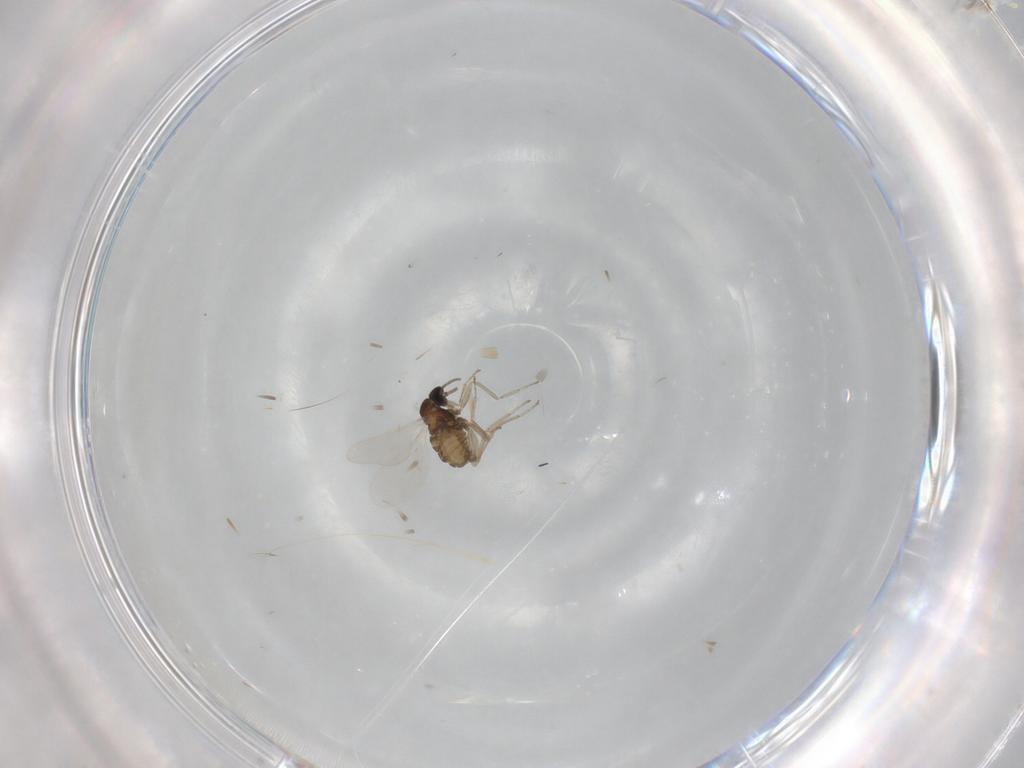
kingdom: Animalia
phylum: Arthropoda
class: Insecta
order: Diptera
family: Cecidomyiidae
